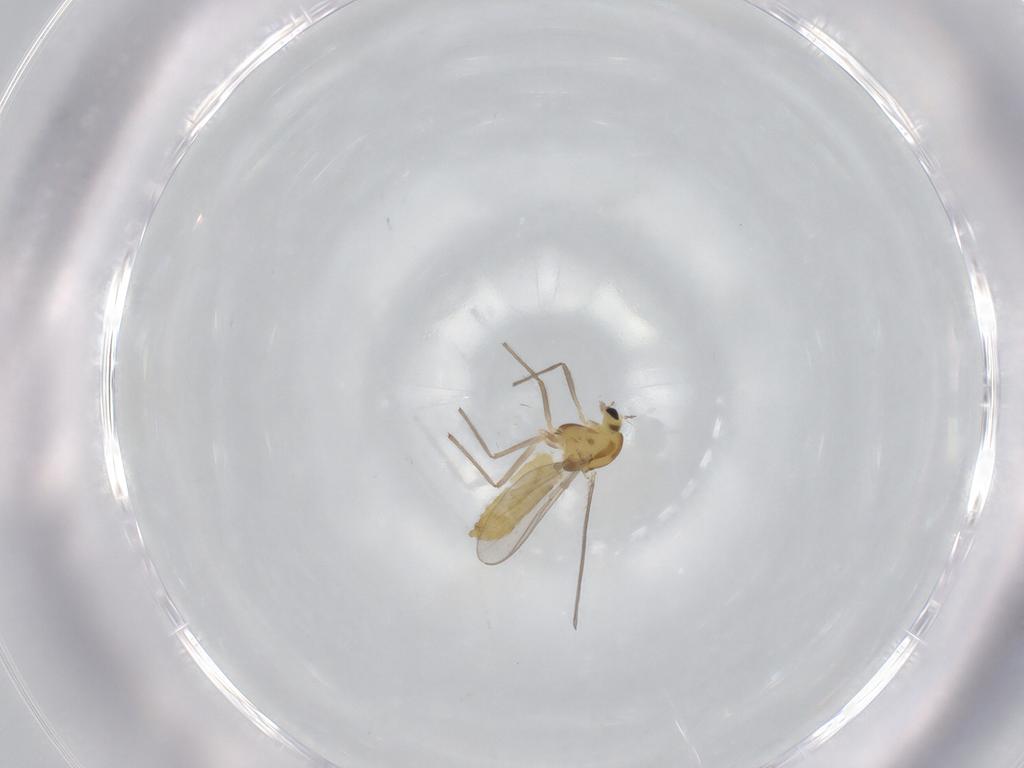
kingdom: Animalia
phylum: Arthropoda
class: Insecta
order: Diptera
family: Chironomidae
